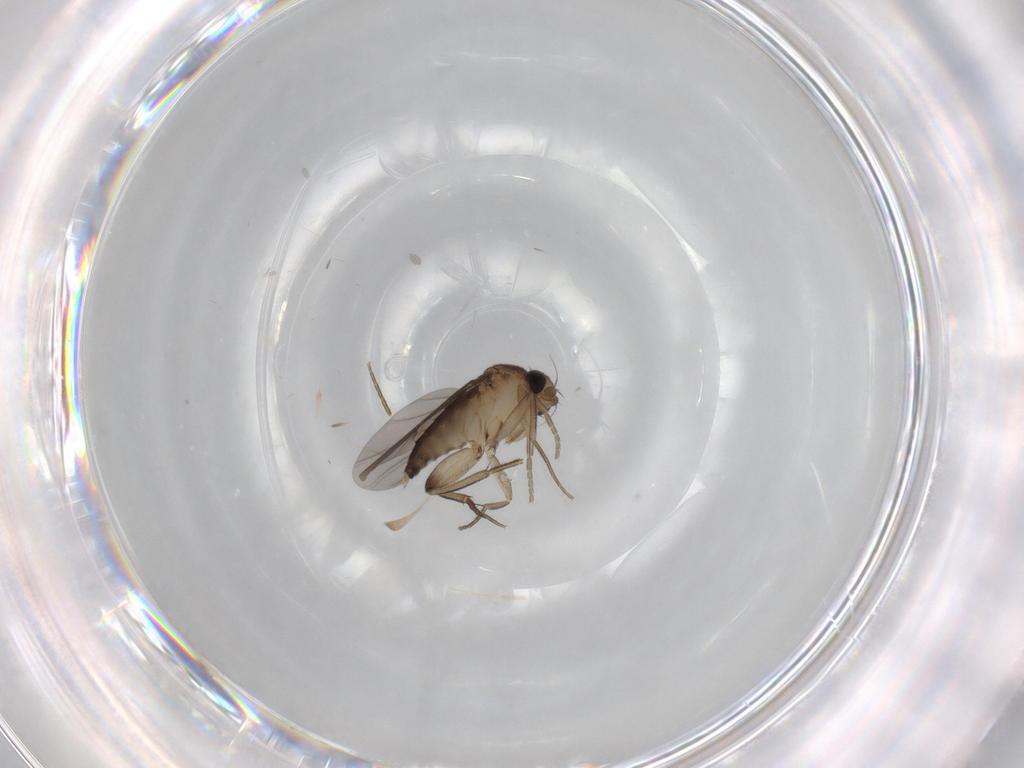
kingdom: Animalia
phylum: Arthropoda
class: Insecta
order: Diptera
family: Phoridae
